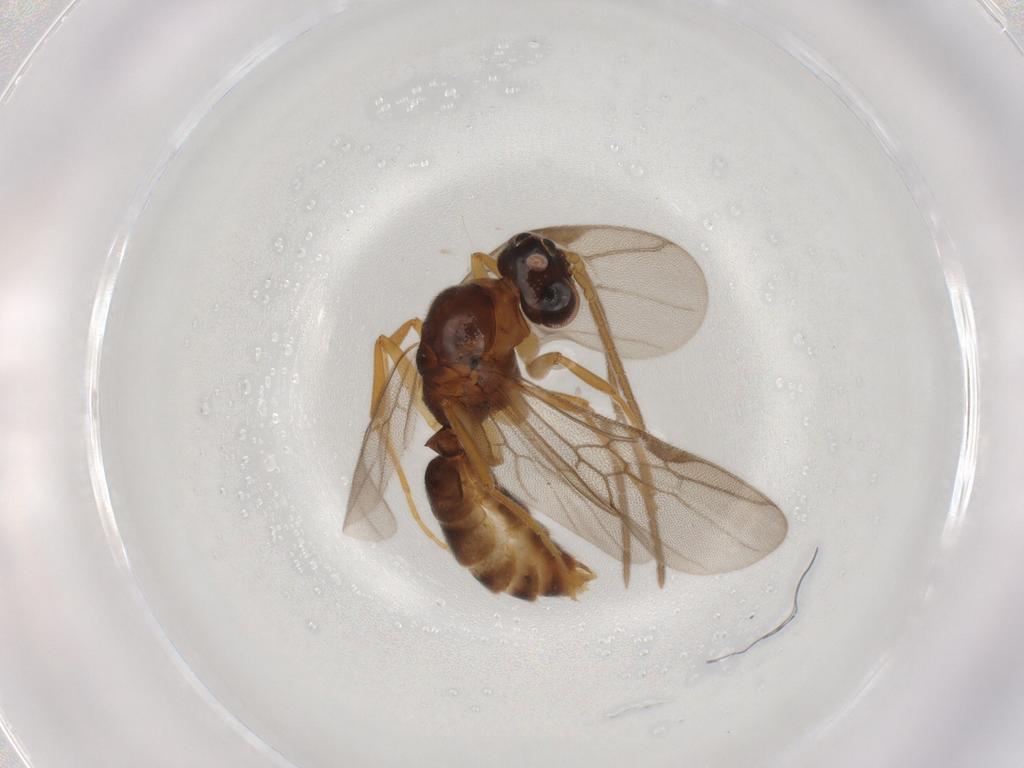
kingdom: Animalia
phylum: Arthropoda
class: Insecta
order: Hymenoptera
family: Formicidae
